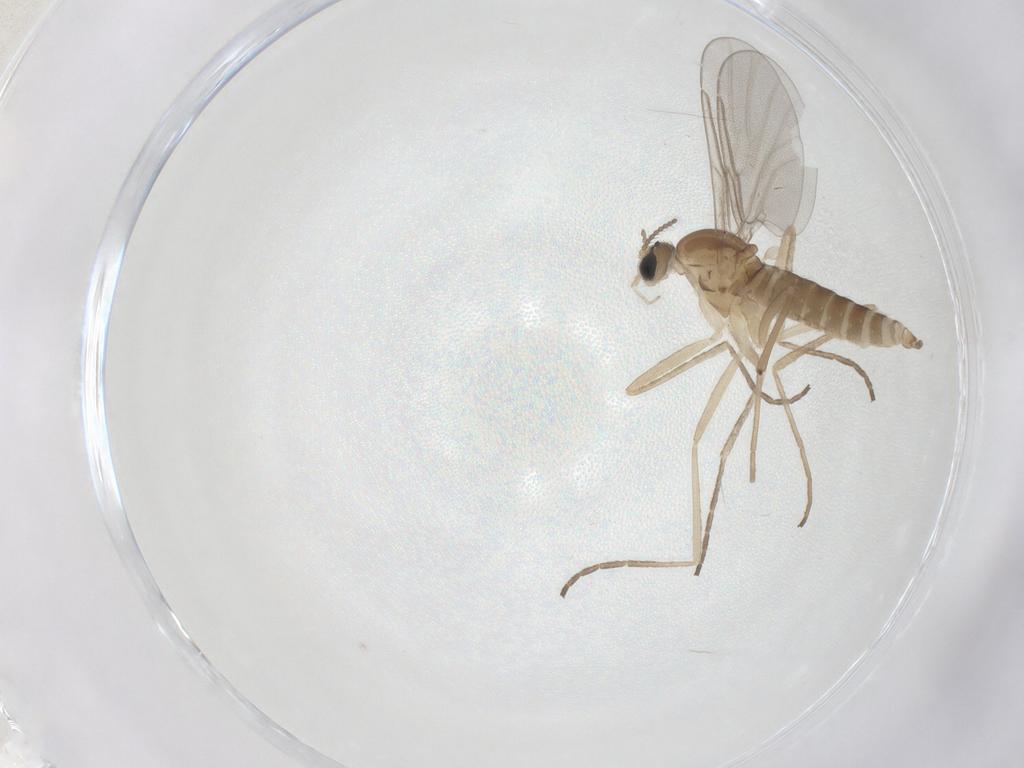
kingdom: Animalia
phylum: Arthropoda
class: Insecta
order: Diptera
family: Cecidomyiidae
